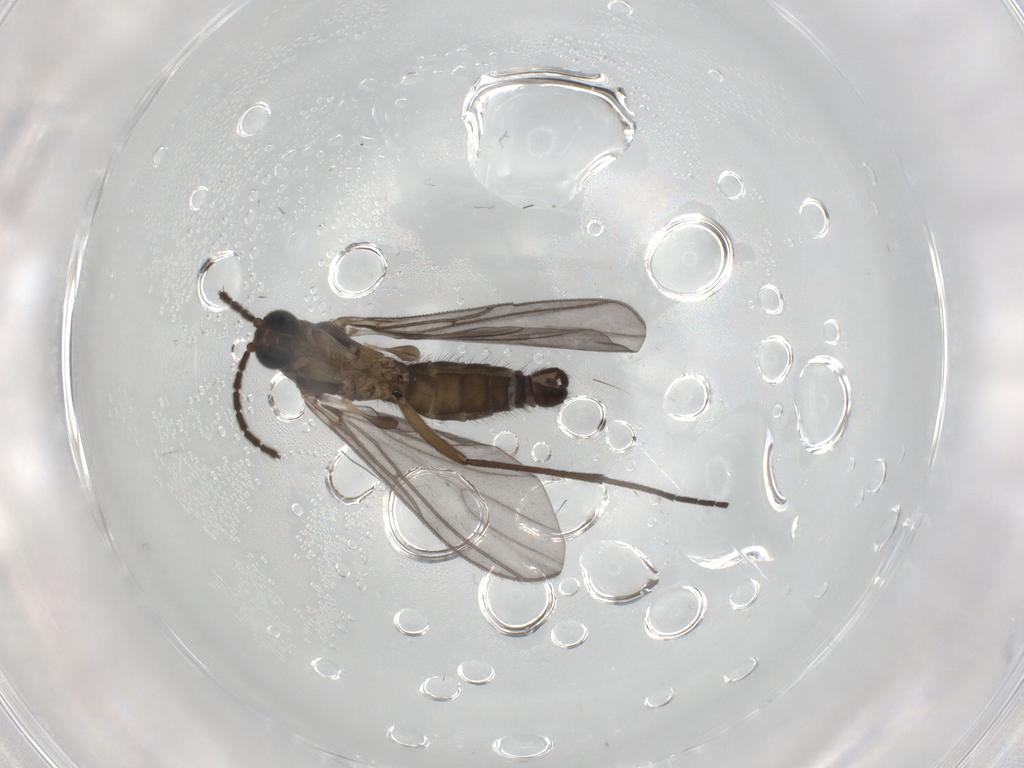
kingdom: Animalia
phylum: Arthropoda
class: Insecta
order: Diptera
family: Sciaridae
